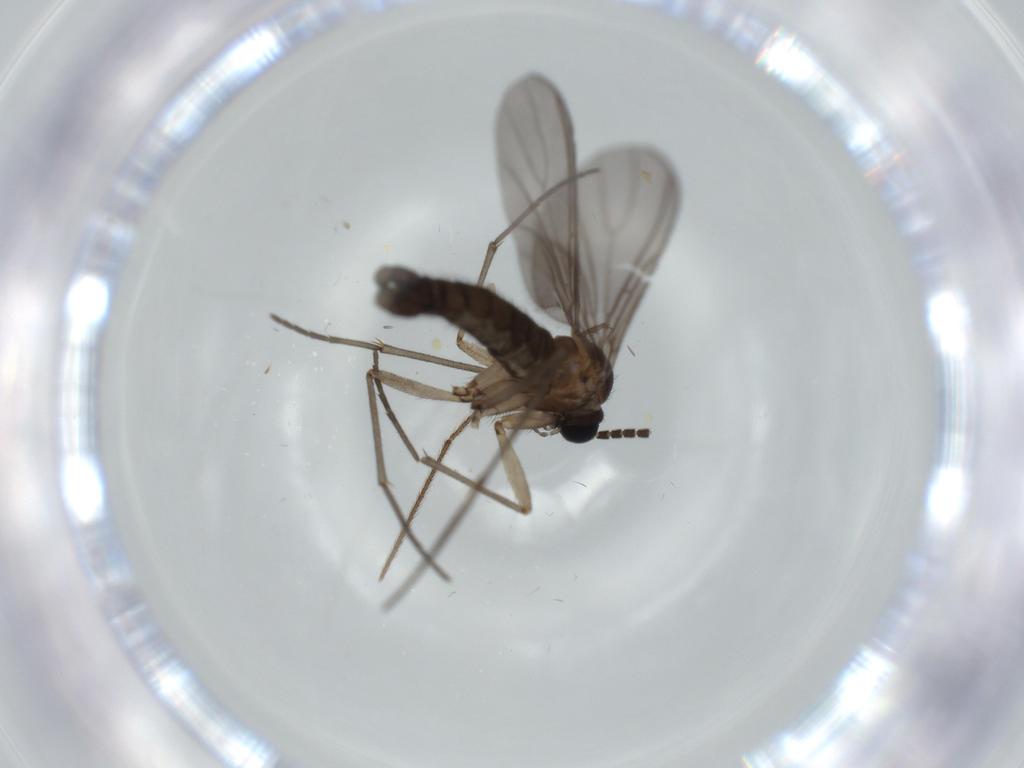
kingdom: Animalia
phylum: Arthropoda
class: Insecta
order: Diptera
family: Sciaridae
